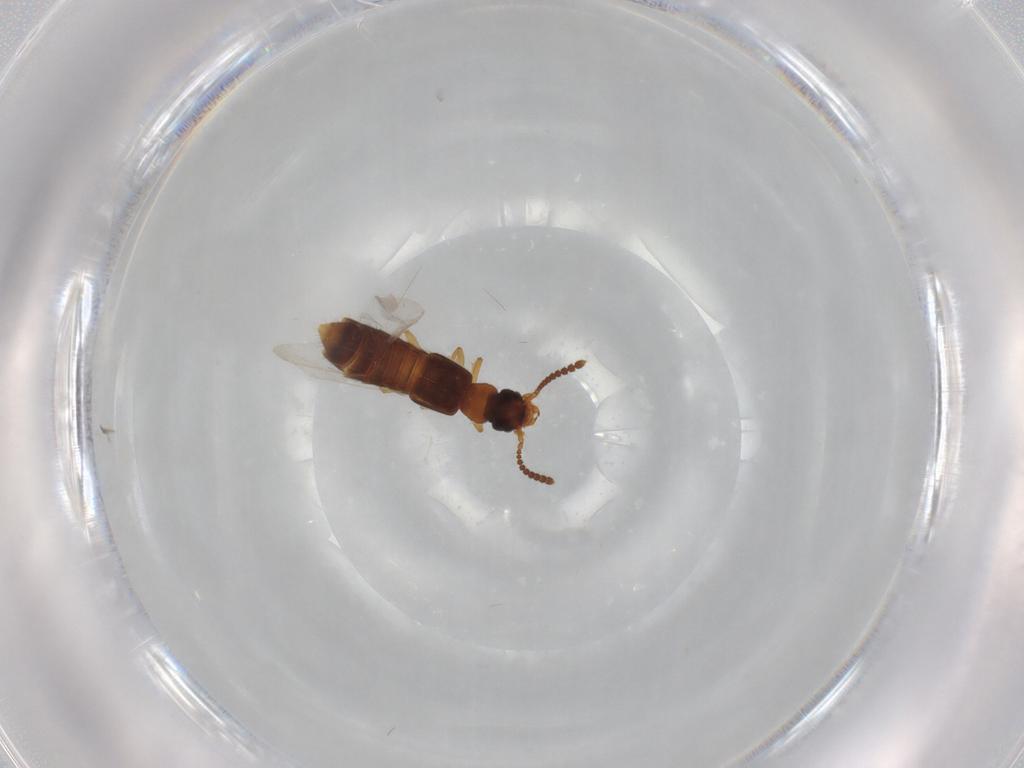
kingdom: Animalia
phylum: Arthropoda
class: Insecta
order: Coleoptera
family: Staphylinidae
